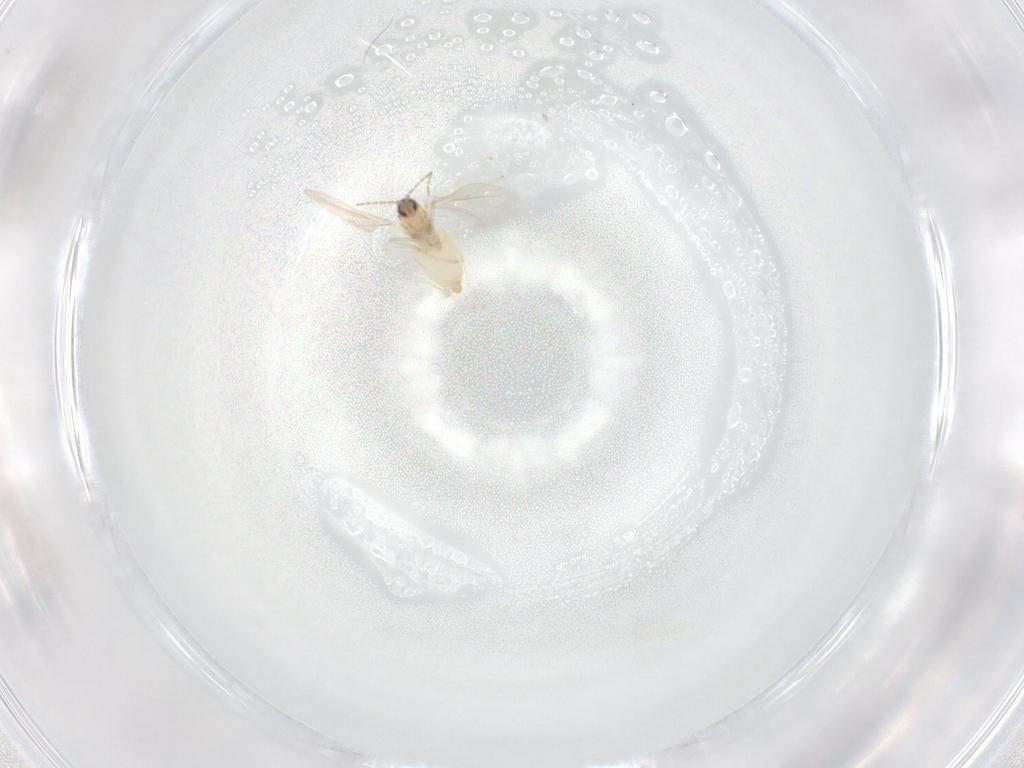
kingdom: Animalia
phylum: Arthropoda
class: Insecta
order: Diptera
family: Cecidomyiidae
